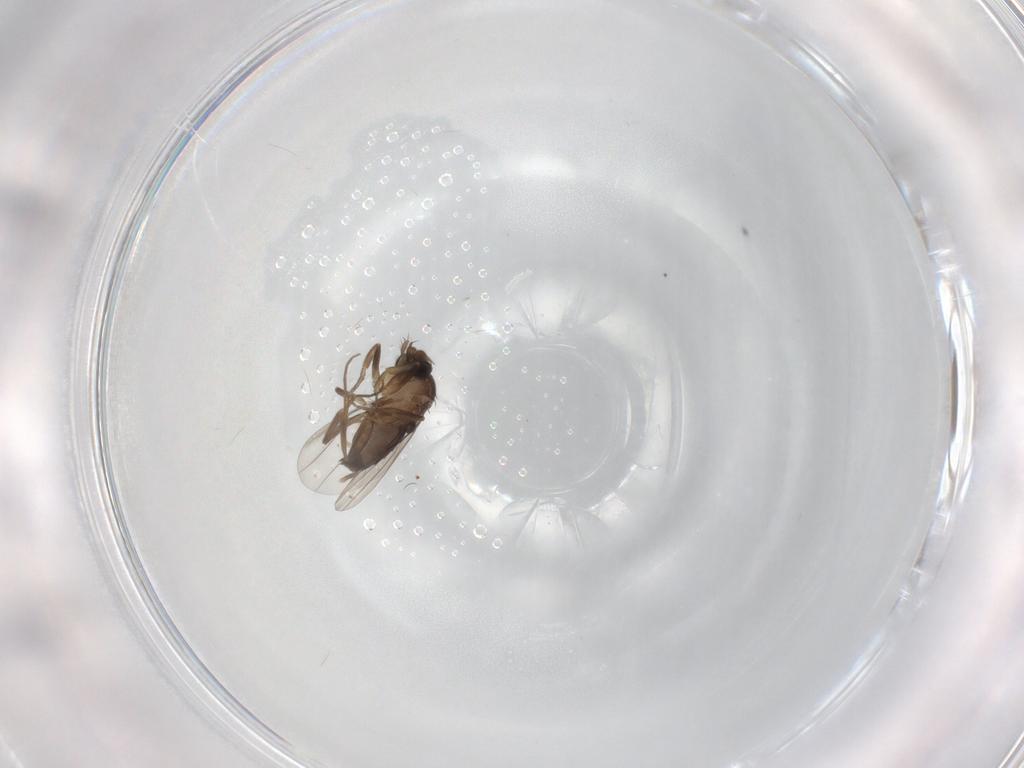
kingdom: Animalia
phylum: Arthropoda
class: Insecta
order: Diptera
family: Phoridae
